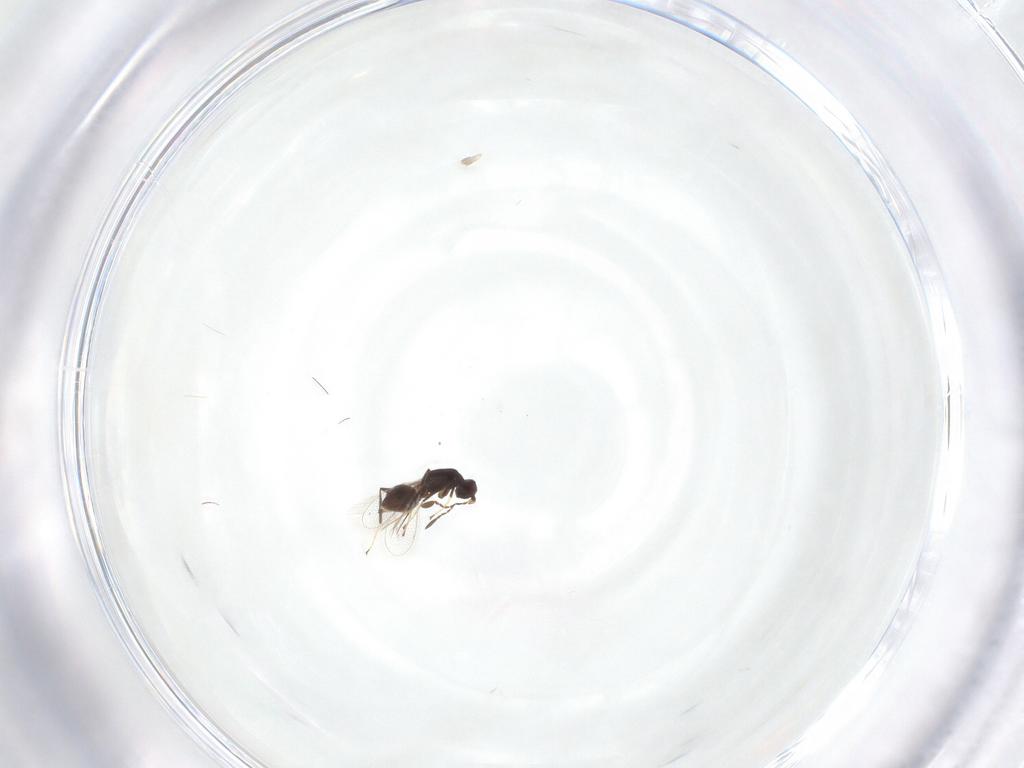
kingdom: Animalia
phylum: Arthropoda
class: Insecta
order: Hymenoptera
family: Mymaridae
